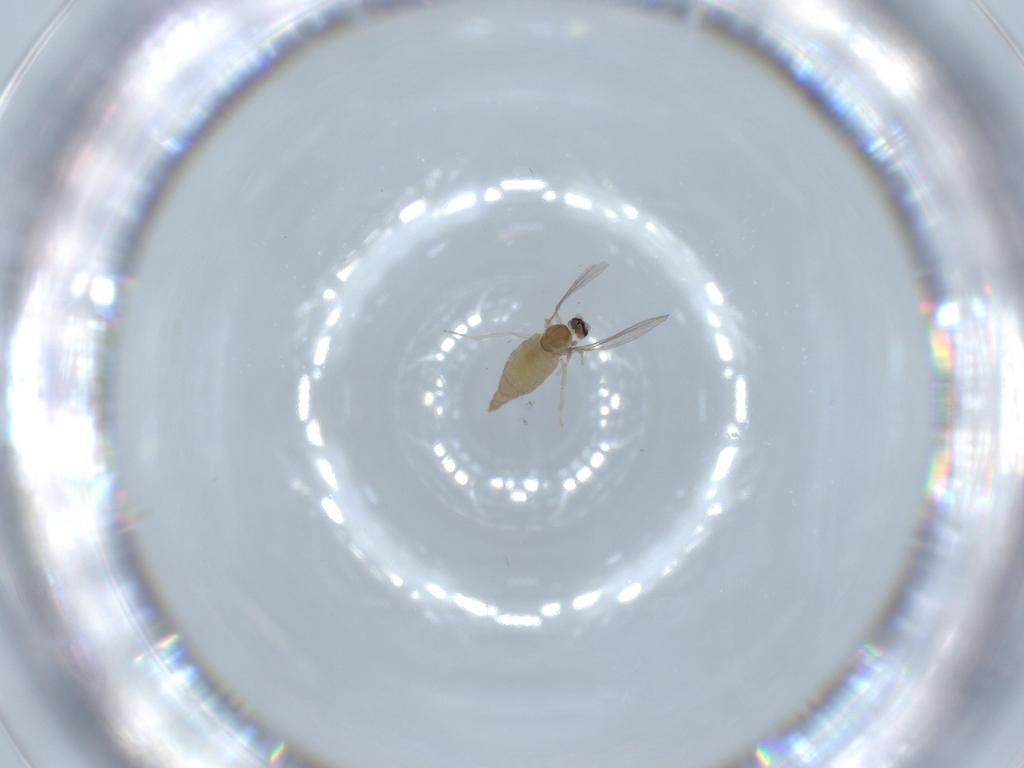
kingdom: Animalia
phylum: Arthropoda
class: Insecta
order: Diptera
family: Cecidomyiidae
